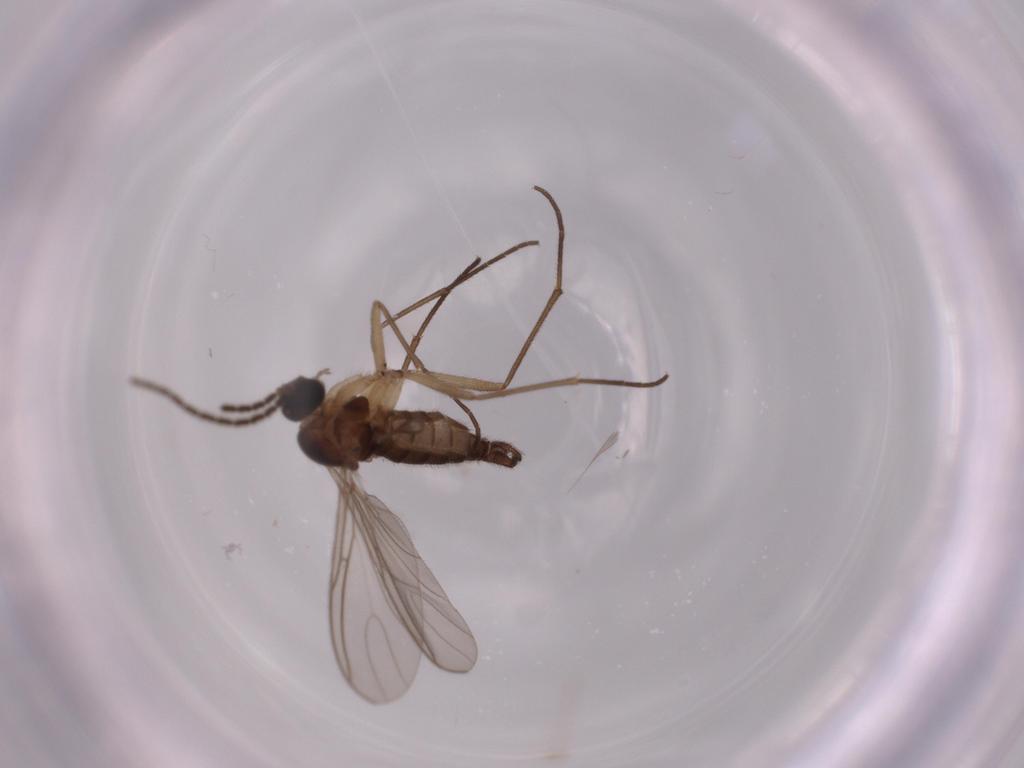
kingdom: Animalia
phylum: Arthropoda
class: Insecta
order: Diptera
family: Sciaridae
